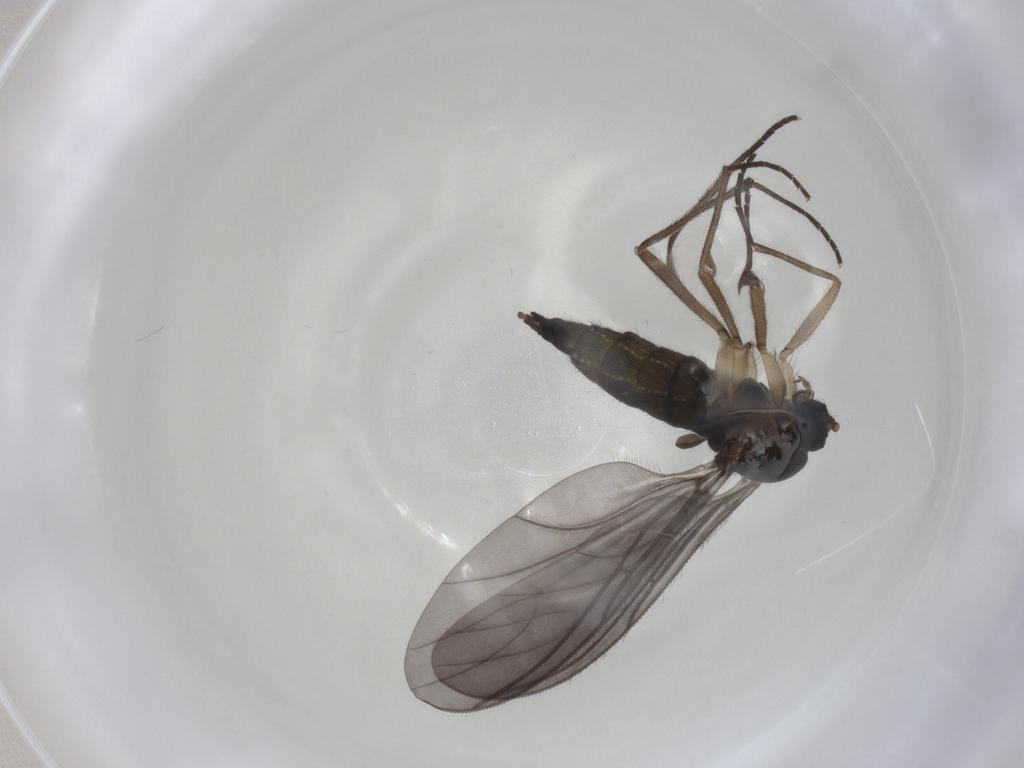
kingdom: Animalia
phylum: Arthropoda
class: Insecta
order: Diptera
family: Sciaridae
